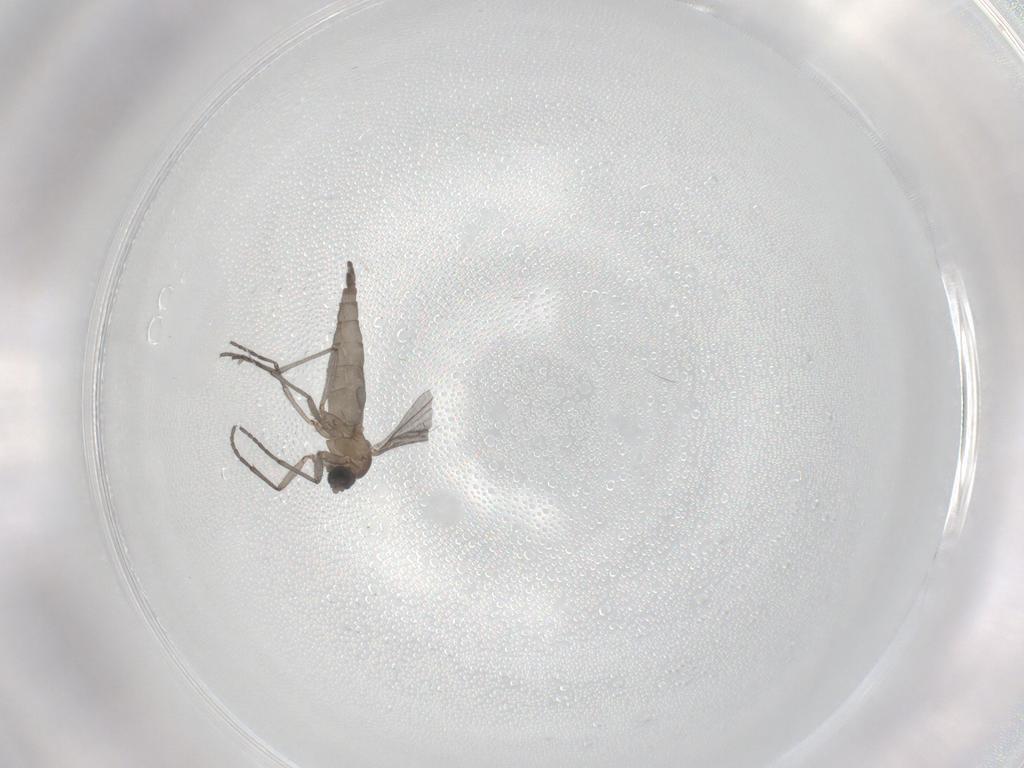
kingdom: Animalia
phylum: Arthropoda
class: Insecta
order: Diptera
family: Sciaridae
